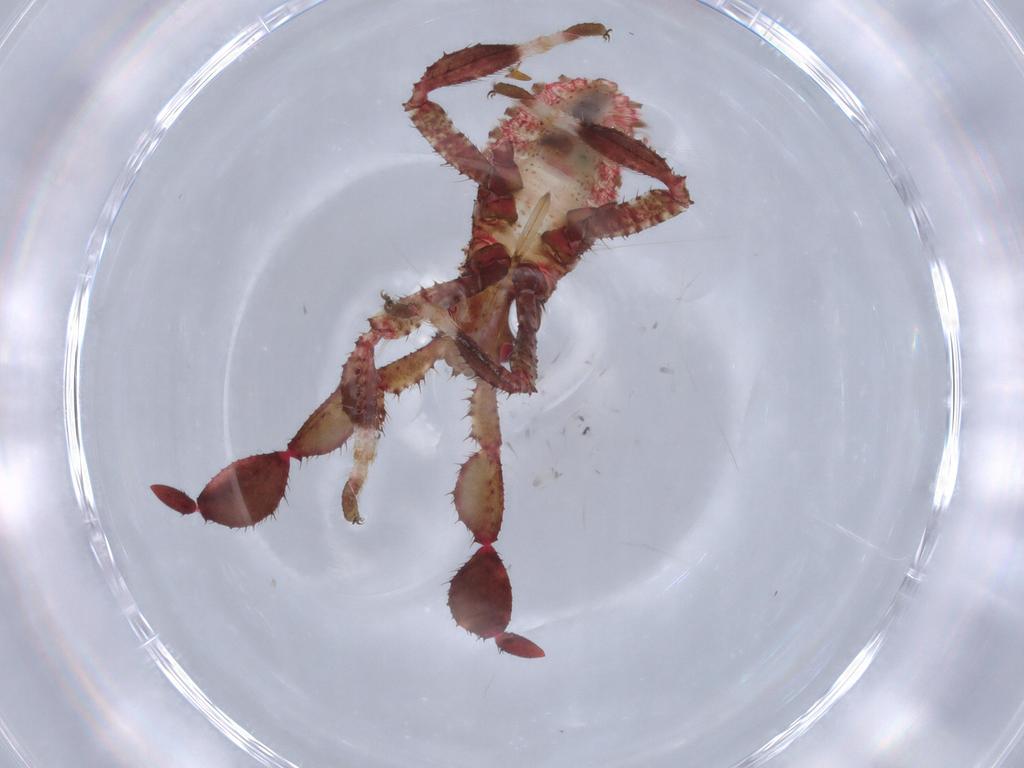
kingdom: Animalia
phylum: Arthropoda
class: Insecta
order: Hemiptera
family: Coreidae
